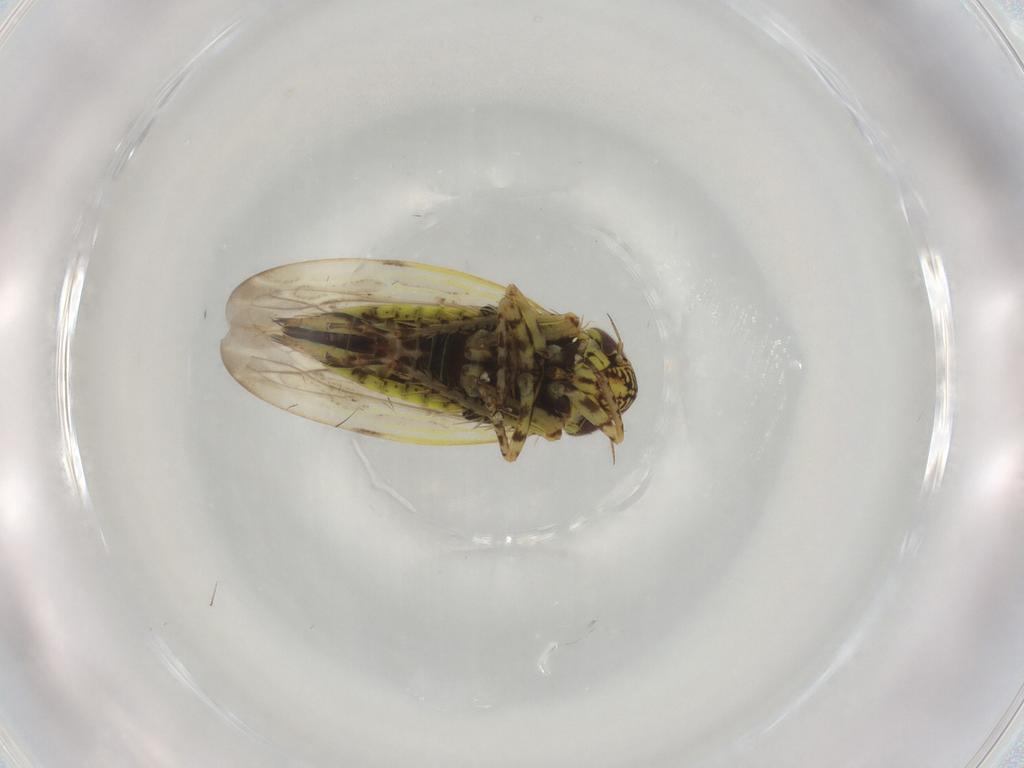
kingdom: Animalia
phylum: Arthropoda
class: Insecta
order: Hemiptera
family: Cicadellidae
